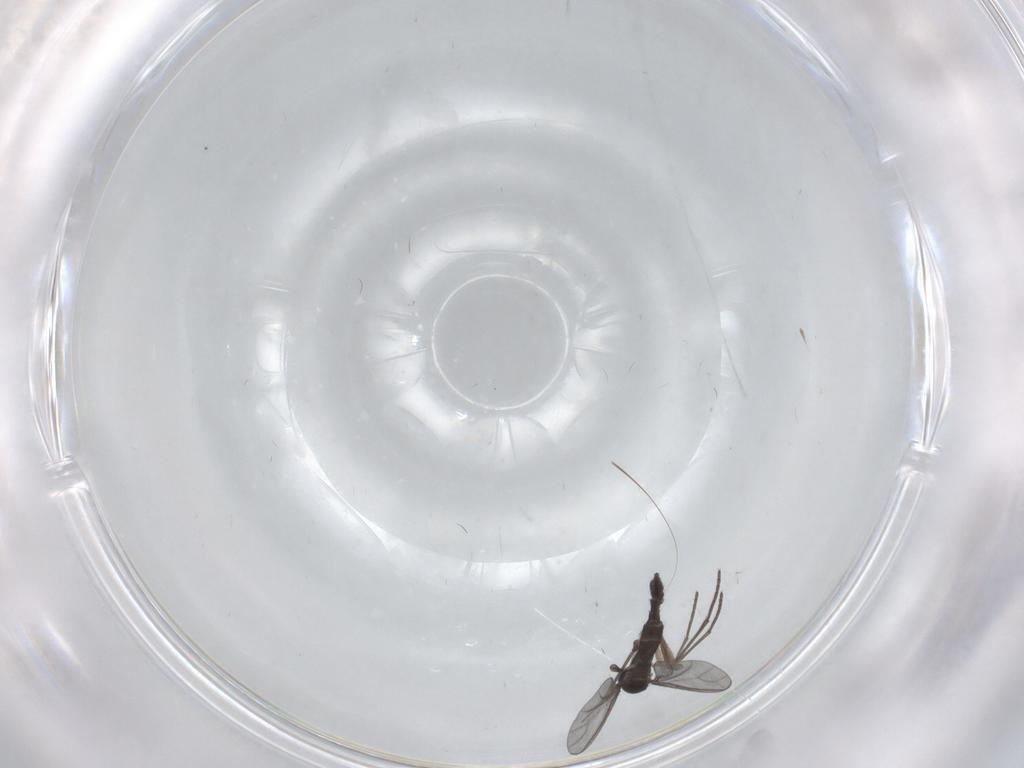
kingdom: Animalia
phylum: Arthropoda
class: Insecta
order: Diptera
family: Culicidae
